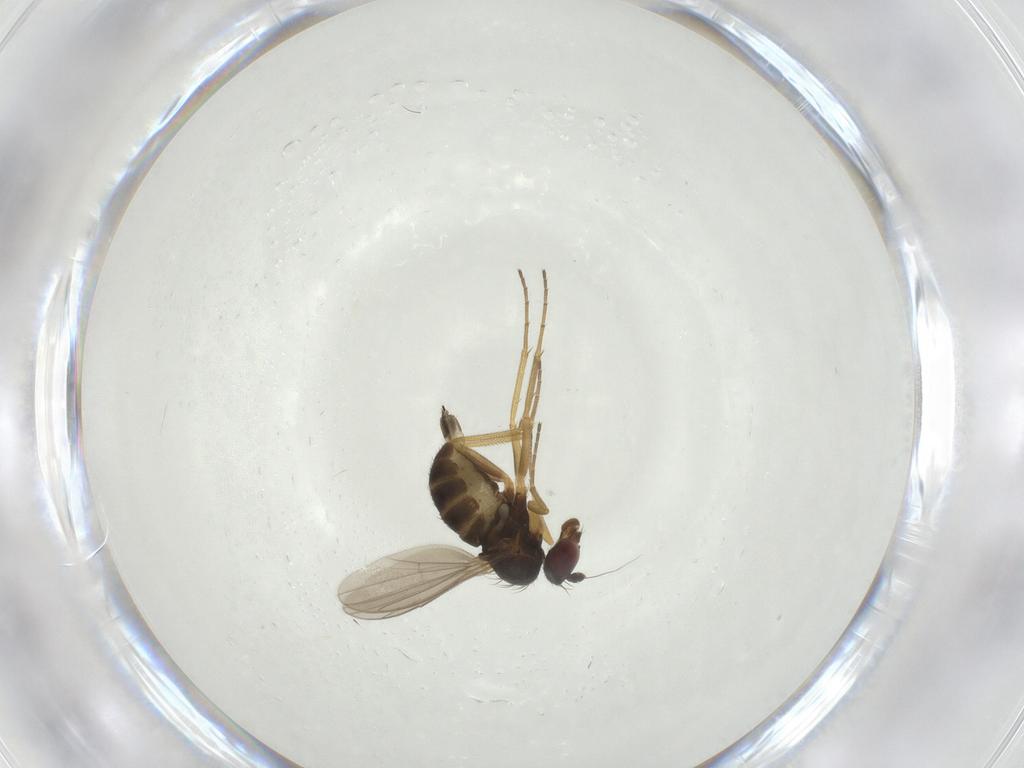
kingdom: Animalia
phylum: Arthropoda
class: Insecta
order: Diptera
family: Dolichopodidae
